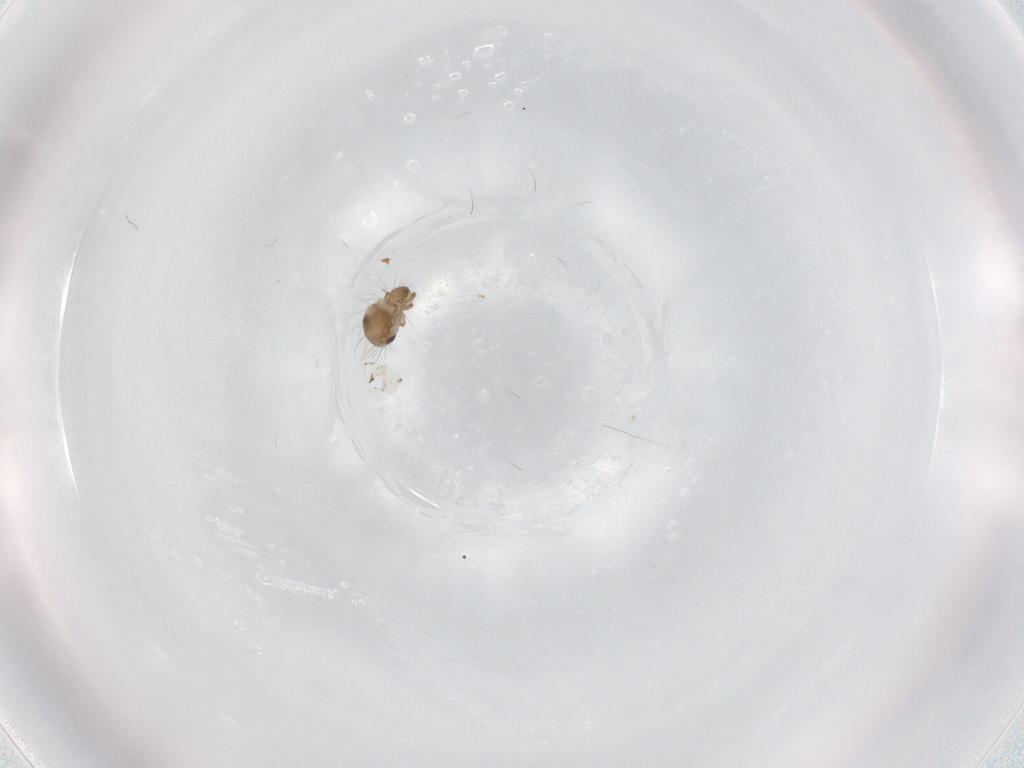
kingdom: Animalia
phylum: Arthropoda
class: Arachnida
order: Sarcoptiformes
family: Humerobatidae
